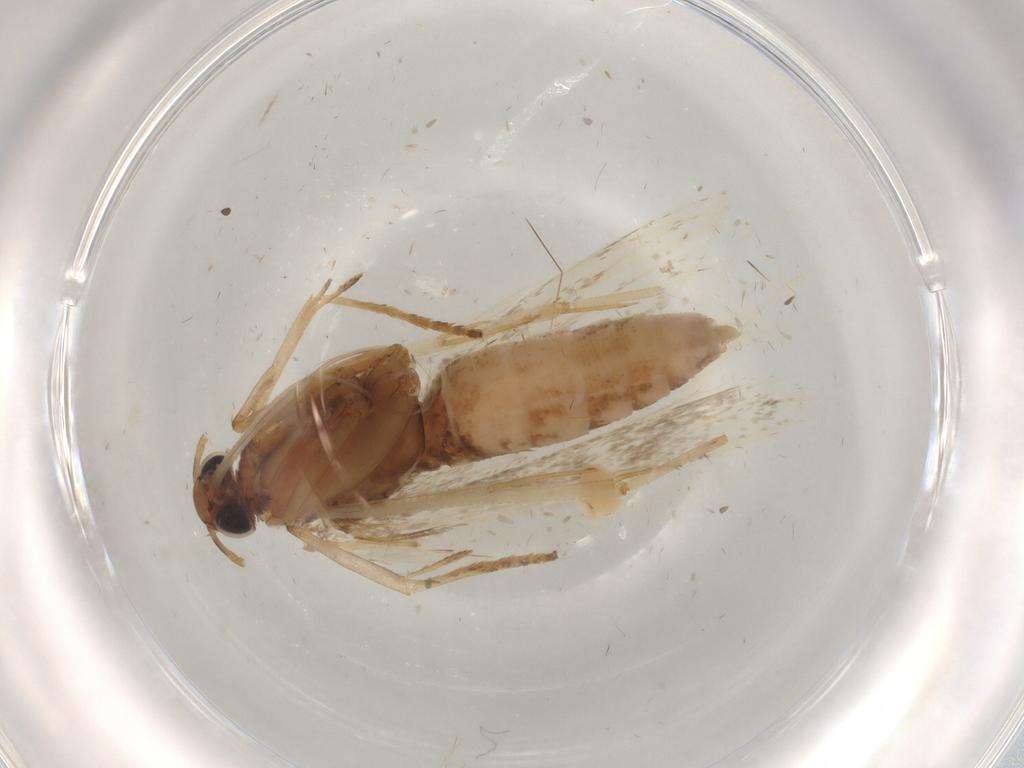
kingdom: Animalia
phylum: Arthropoda
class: Insecta
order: Lepidoptera
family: Gelechiidae
